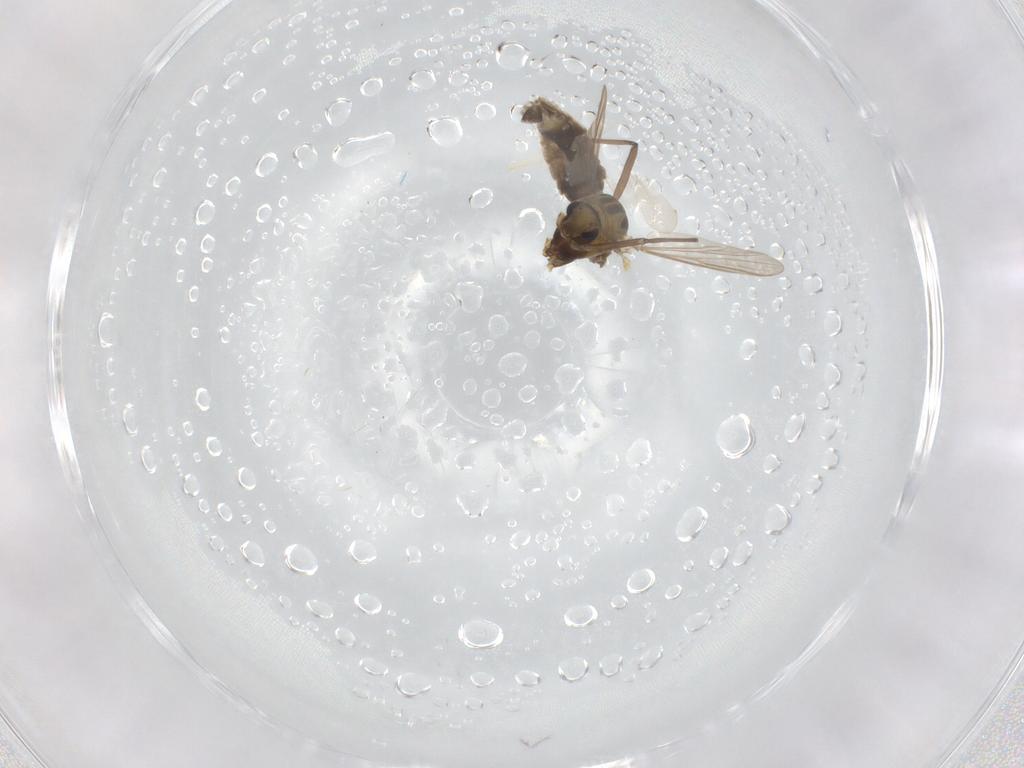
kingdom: Animalia
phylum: Arthropoda
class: Insecta
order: Diptera
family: Chironomidae
